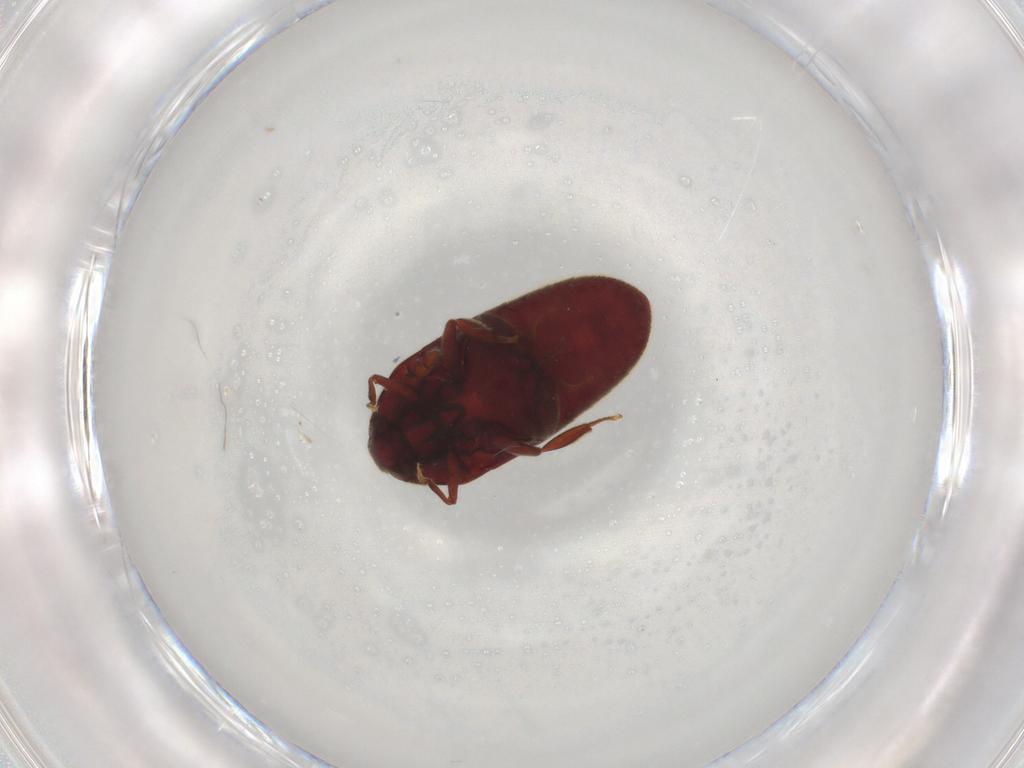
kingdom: Animalia
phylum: Arthropoda
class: Insecta
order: Coleoptera
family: Throscidae
